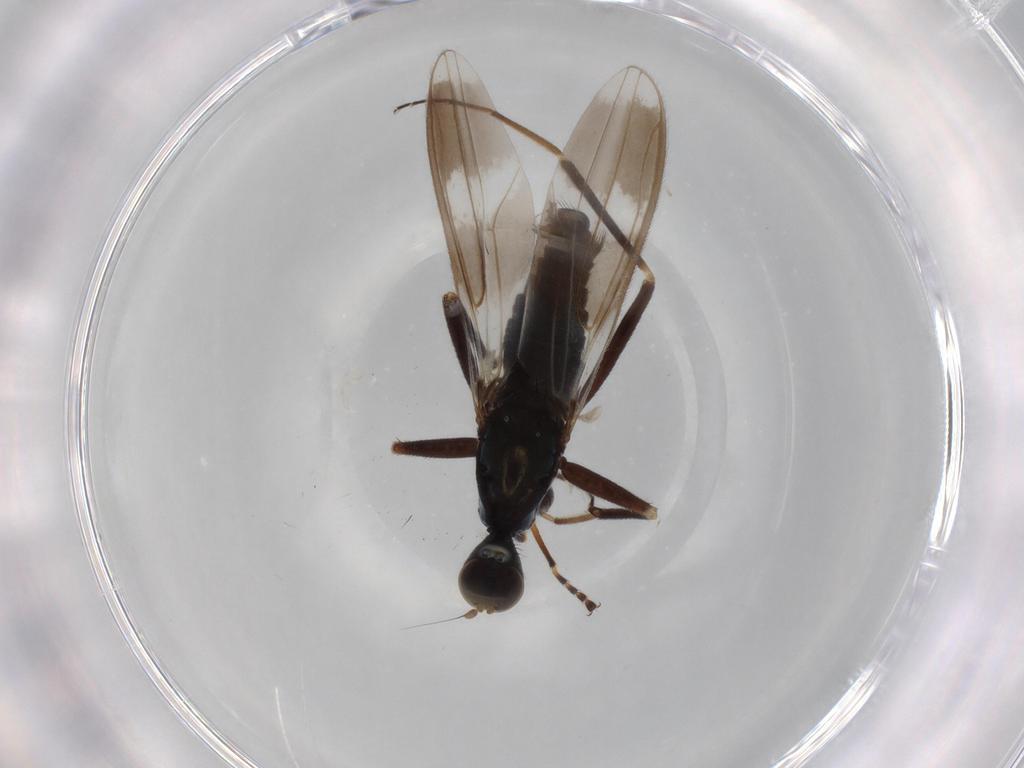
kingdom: Animalia
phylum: Arthropoda
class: Insecta
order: Diptera
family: Hybotidae
